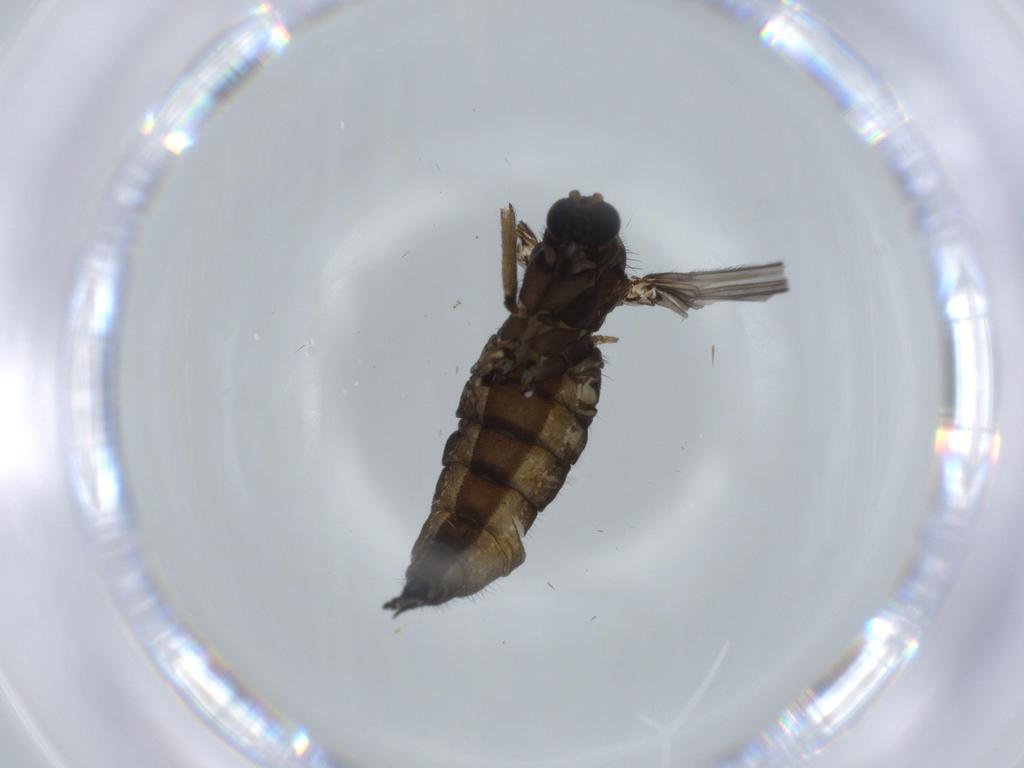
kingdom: Animalia
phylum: Arthropoda
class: Insecta
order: Diptera
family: Sciaridae
